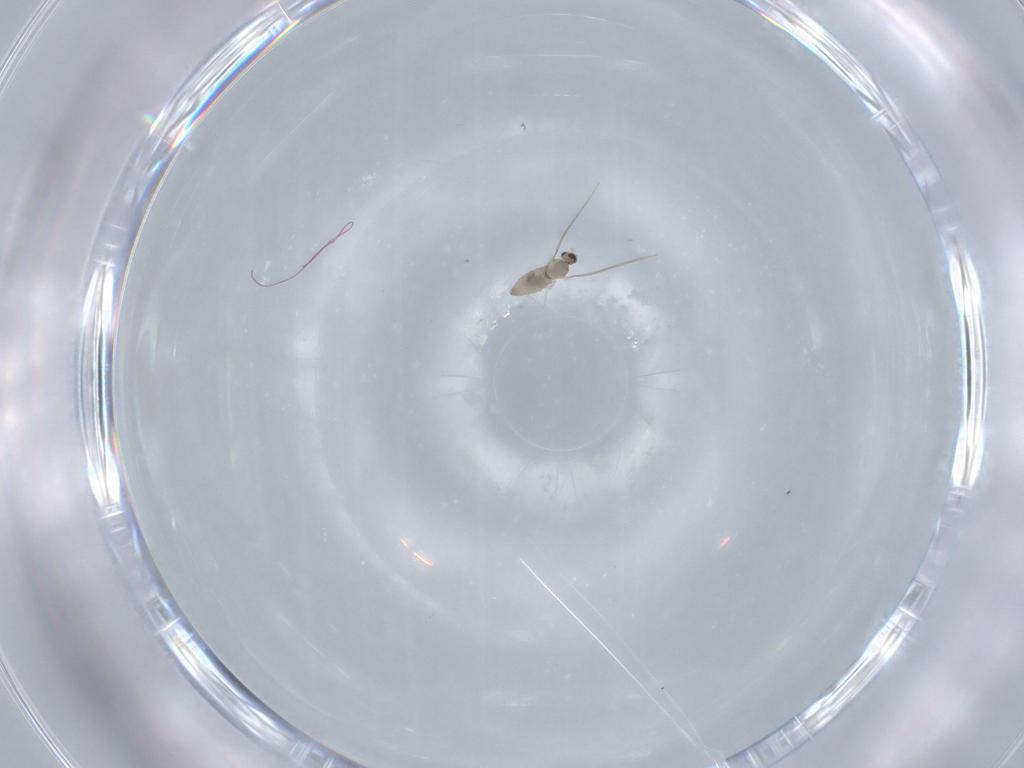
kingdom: Animalia
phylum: Arthropoda
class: Insecta
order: Diptera
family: Cecidomyiidae
